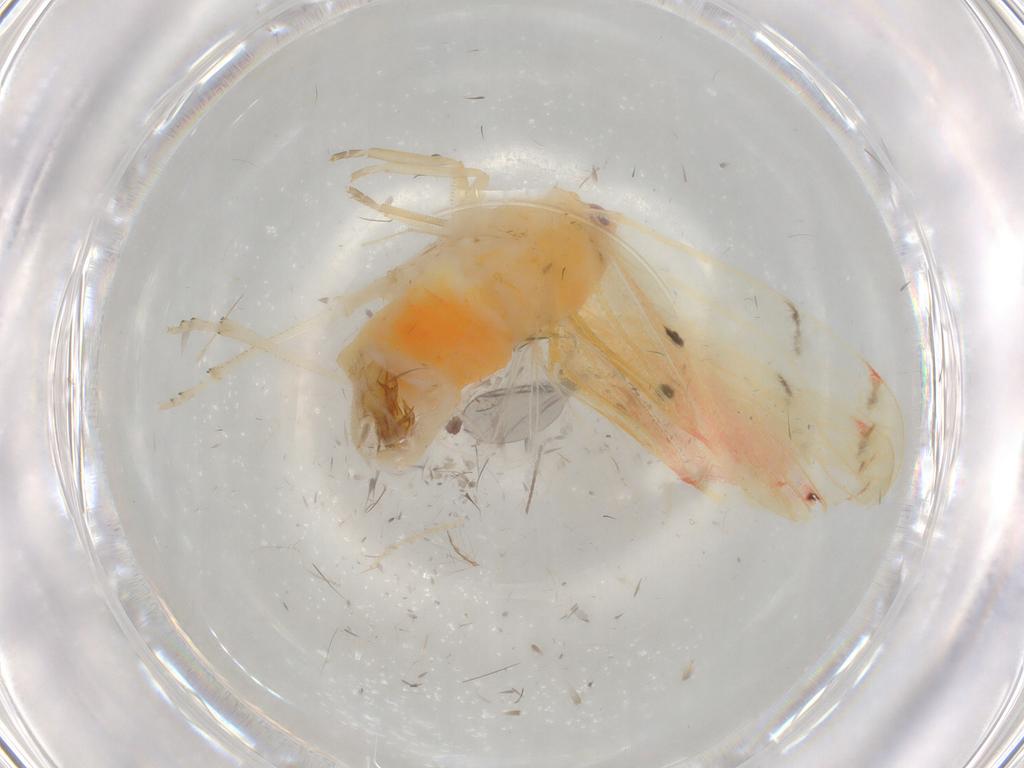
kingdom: Animalia
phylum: Arthropoda
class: Insecta
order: Hemiptera
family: Derbidae
